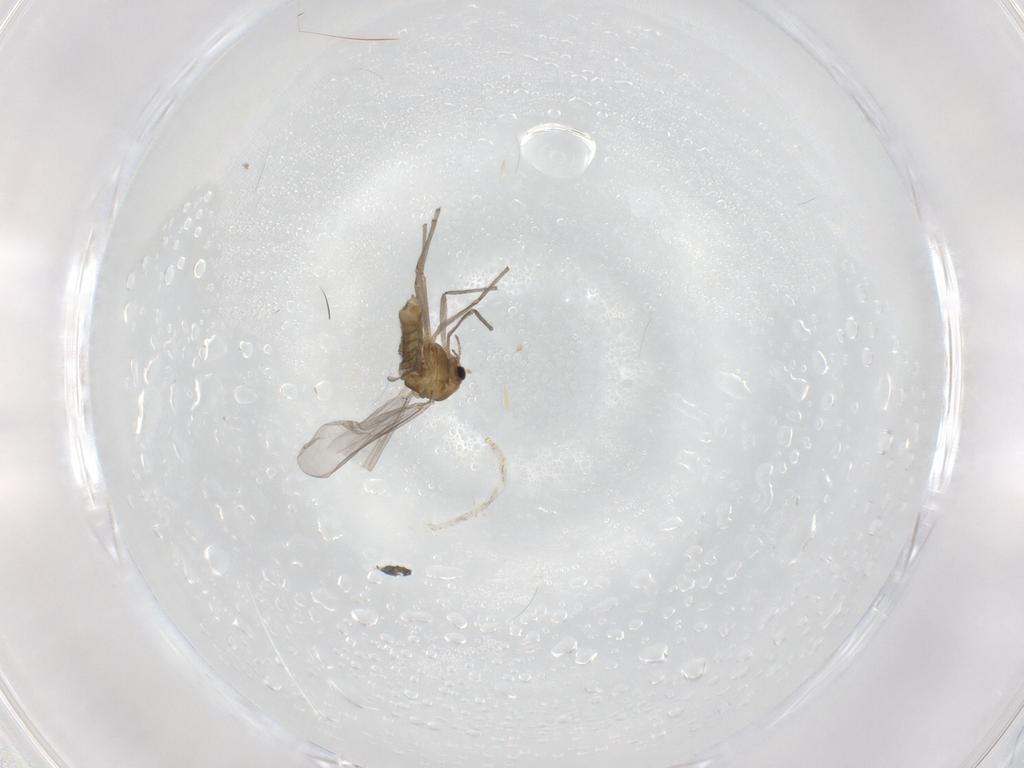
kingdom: Animalia
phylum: Arthropoda
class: Insecta
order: Diptera
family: Chironomidae
